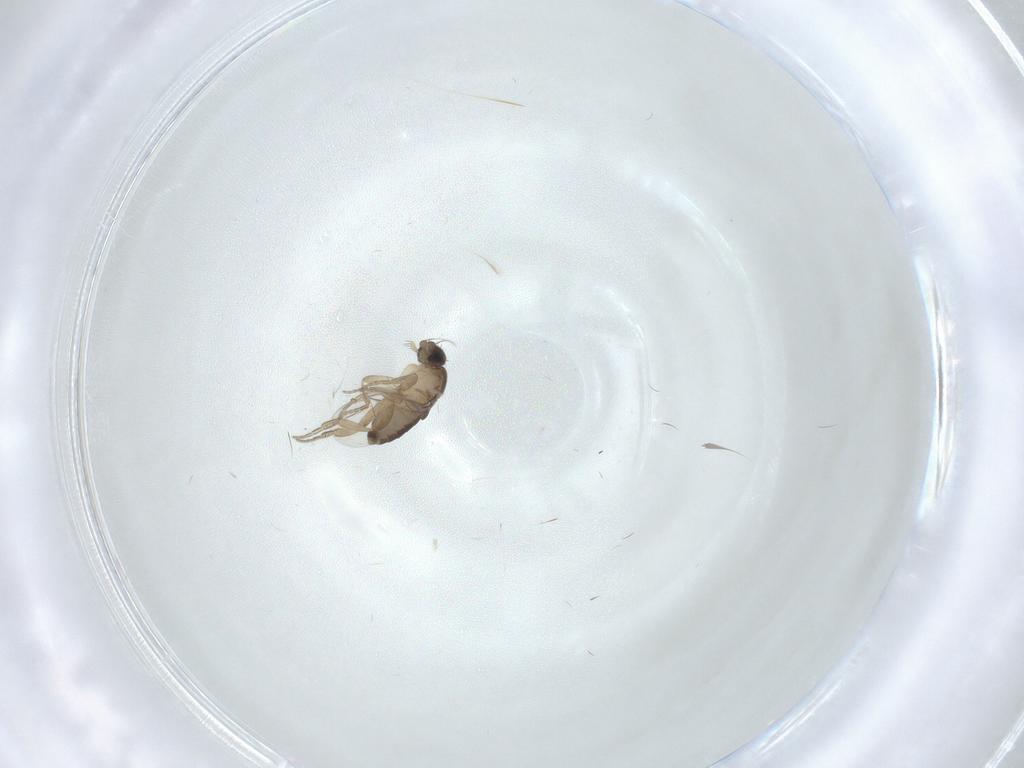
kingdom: Animalia
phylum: Arthropoda
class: Insecta
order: Diptera
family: Phoridae
